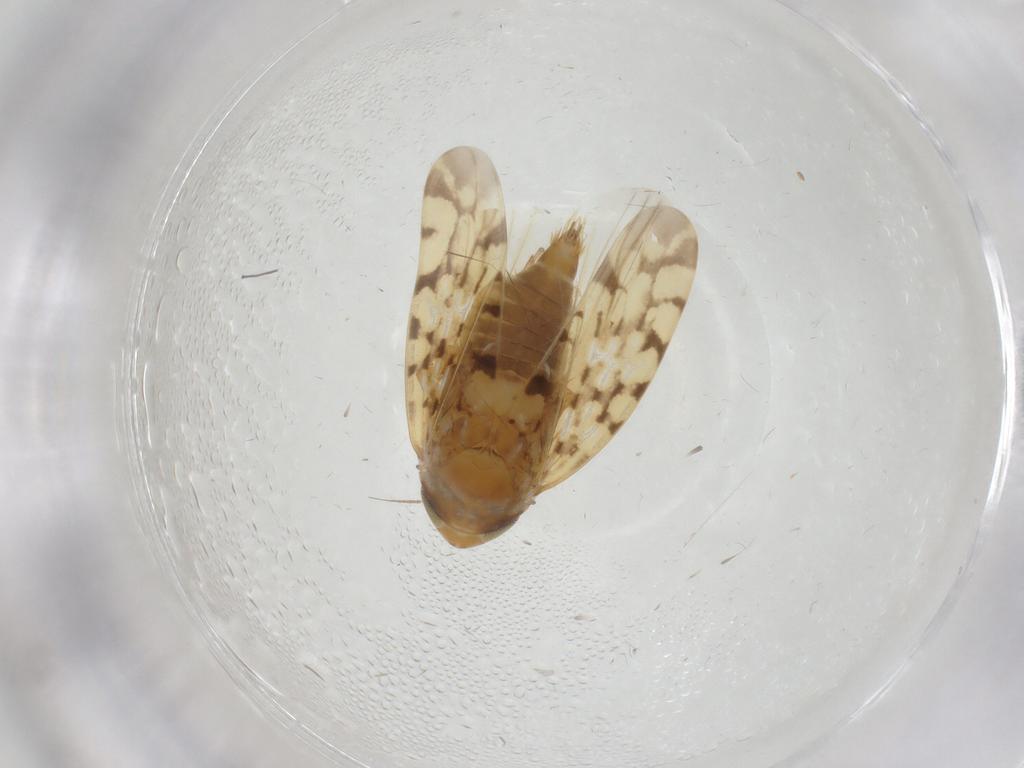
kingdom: Animalia
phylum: Arthropoda
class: Insecta
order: Hemiptera
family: Cicadellidae
